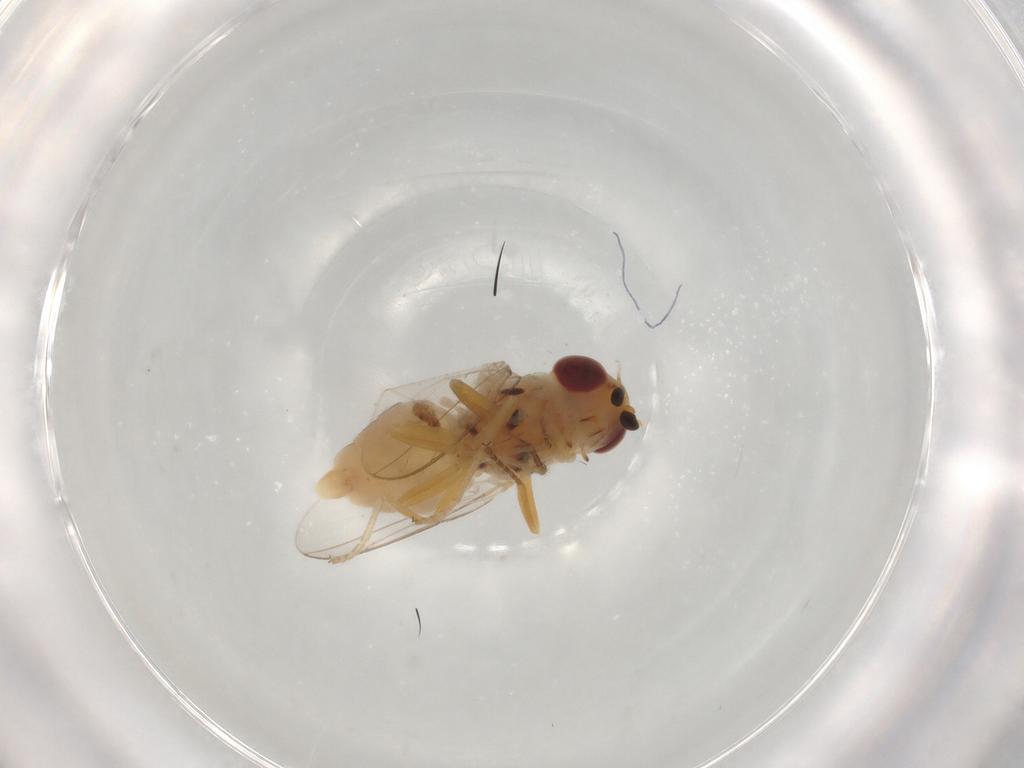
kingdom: Animalia
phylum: Arthropoda
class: Insecta
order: Diptera
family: Chloropidae
